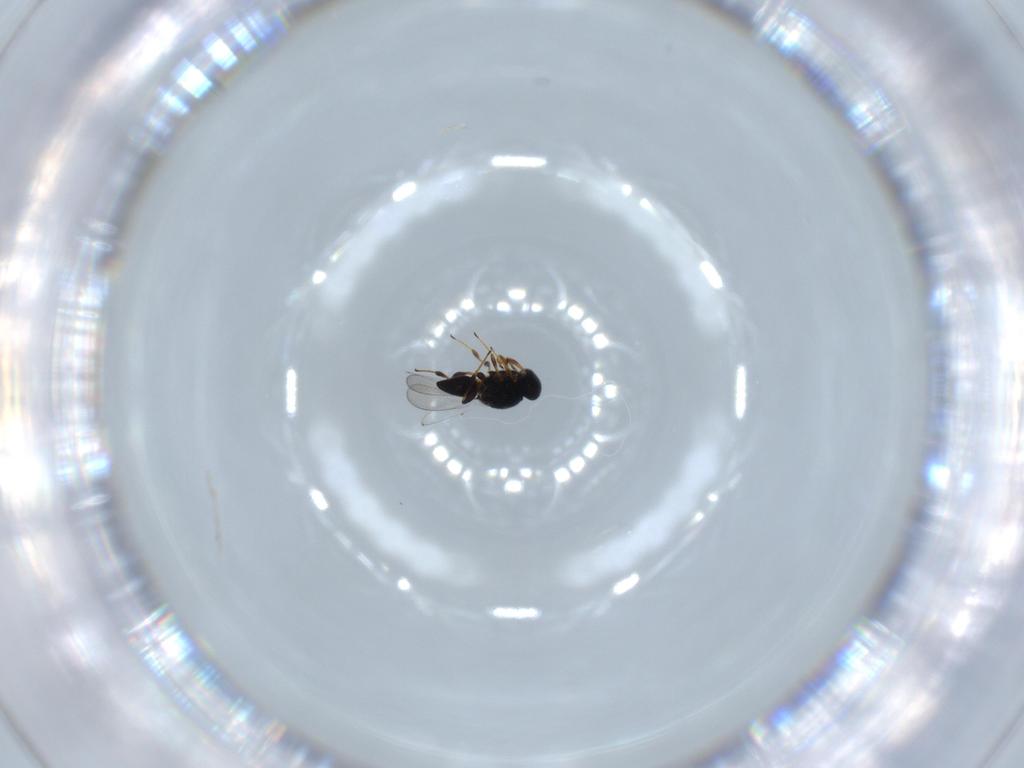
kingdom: Animalia
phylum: Arthropoda
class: Insecta
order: Hymenoptera
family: Platygastridae
